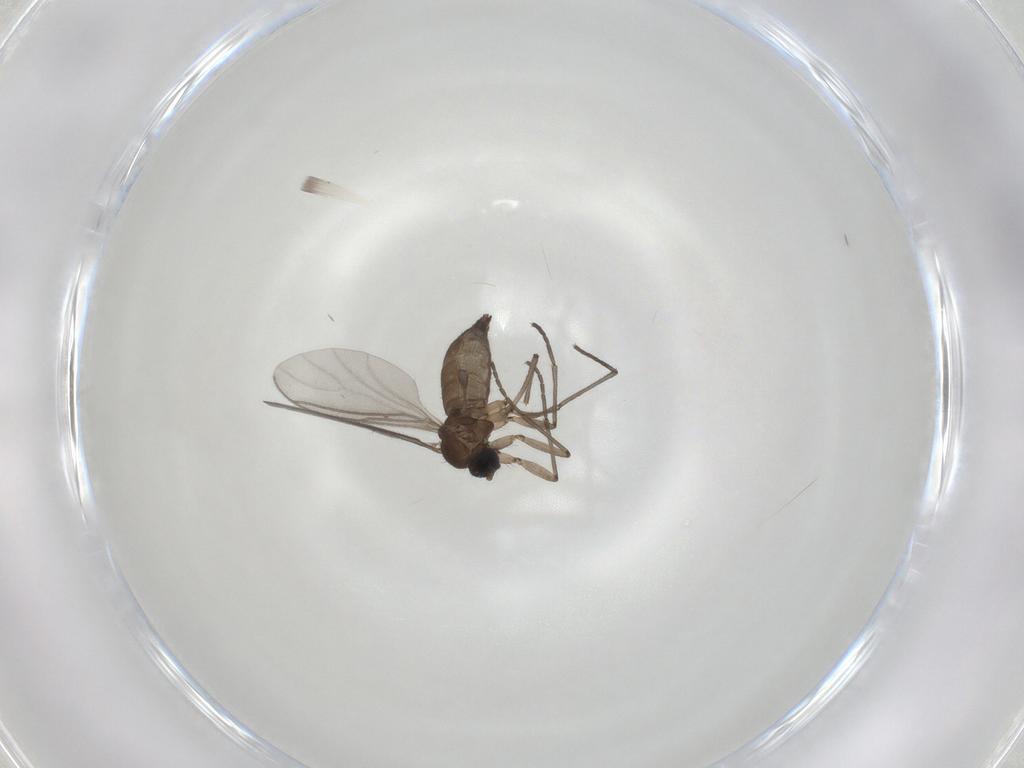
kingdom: Animalia
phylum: Arthropoda
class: Insecta
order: Diptera
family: Sciaridae
